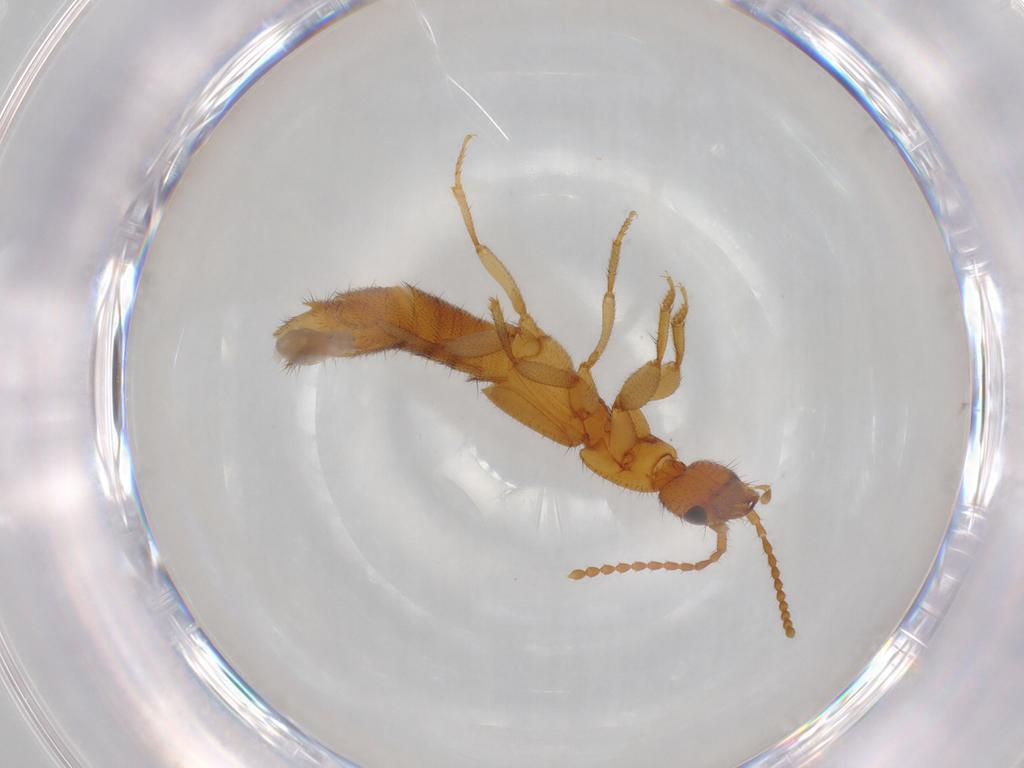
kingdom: Animalia
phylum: Arthropoda
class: Insecta
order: Coleoptera
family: Staphylinidae
